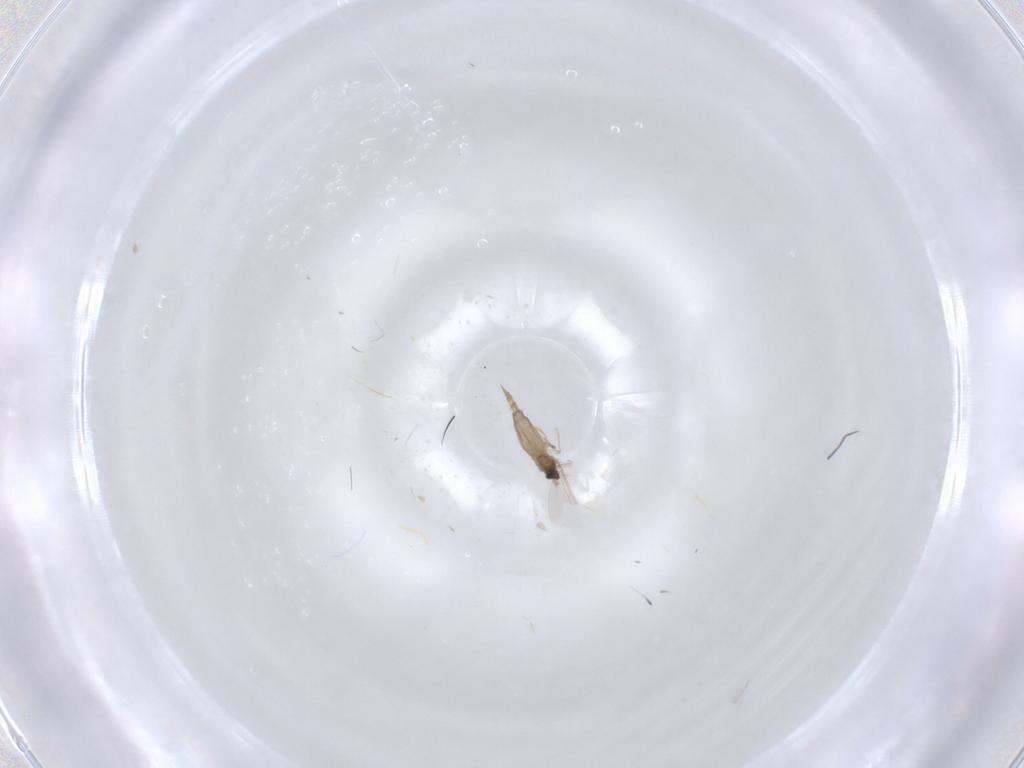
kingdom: Animalia
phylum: Arthropoda
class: Insecta
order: Diptera
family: Cecidomyiidae
